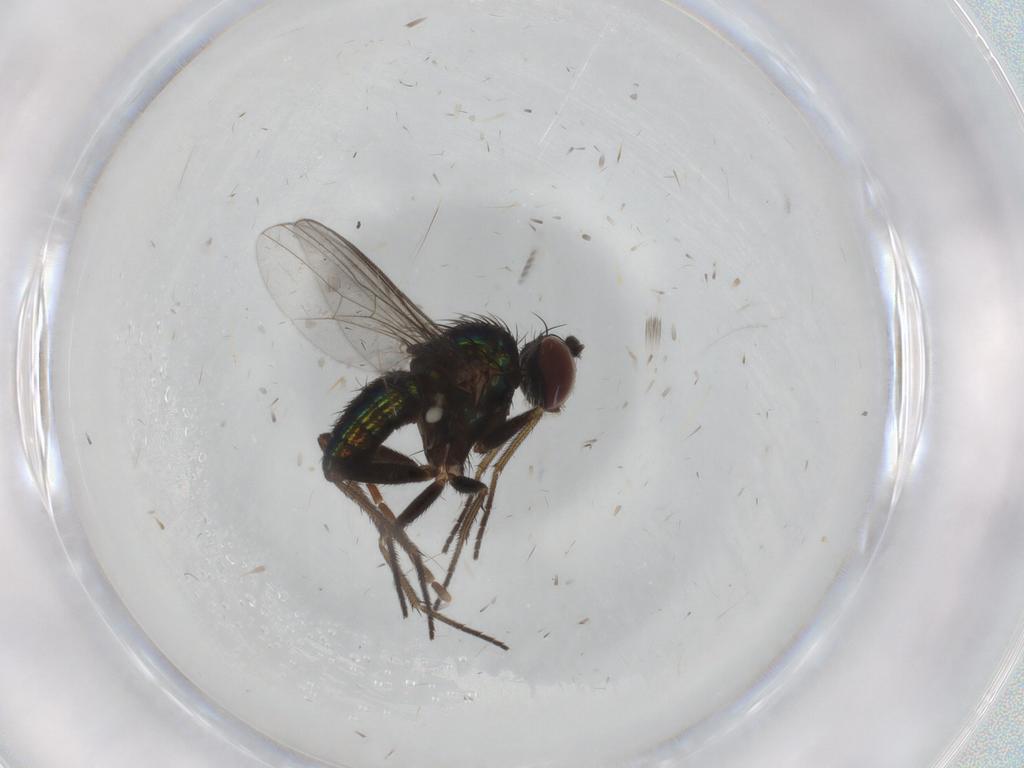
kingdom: Animalia
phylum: Arthropoda
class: Insecta
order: Diptera
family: Dolichopodidae
